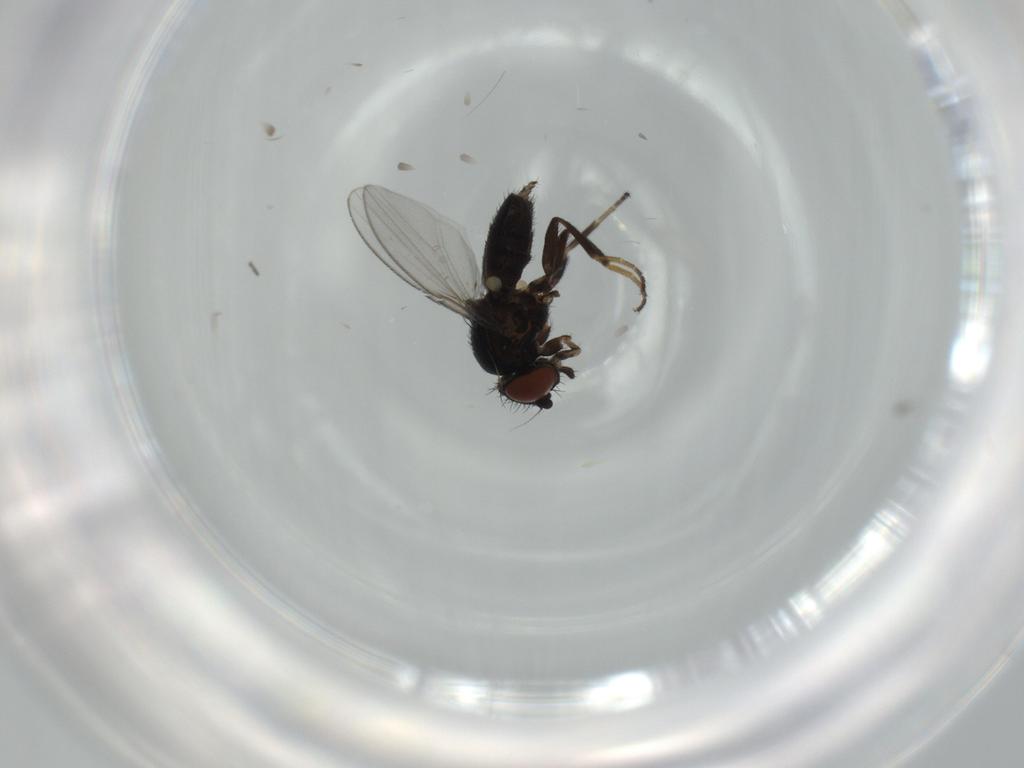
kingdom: Animalia
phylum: Arthropoda
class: Insecta
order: Diptera
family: Milichiidae
